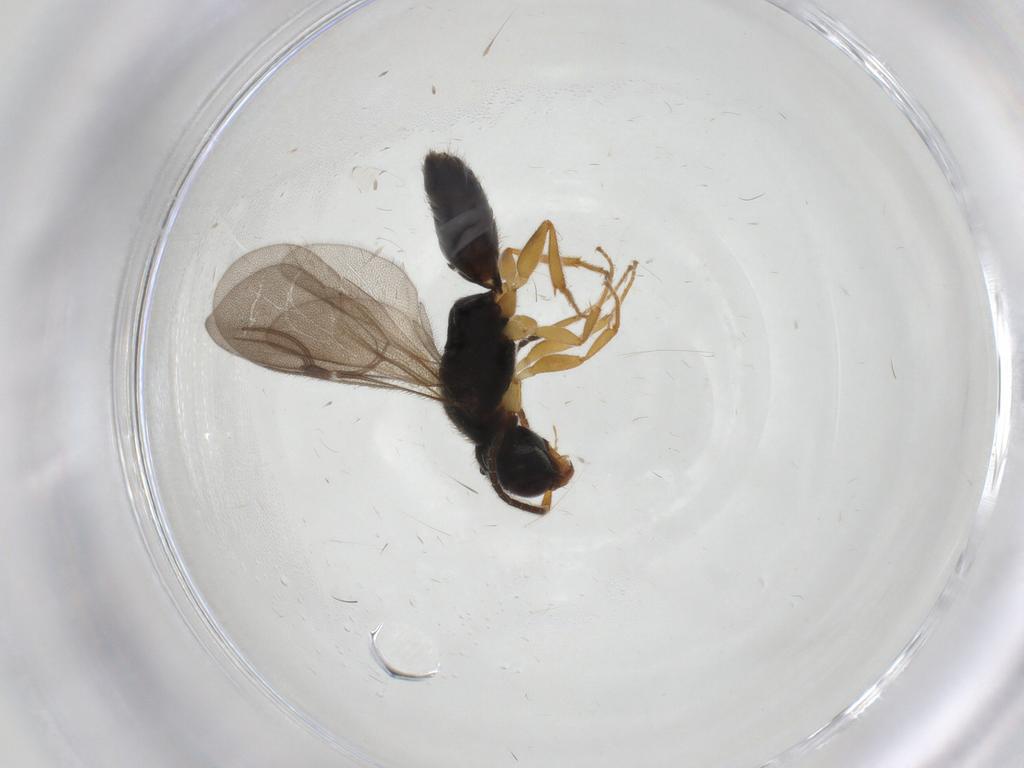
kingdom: Animalia
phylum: Arthropoda
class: Insecta
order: Hymenoptera
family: Bethylidae
